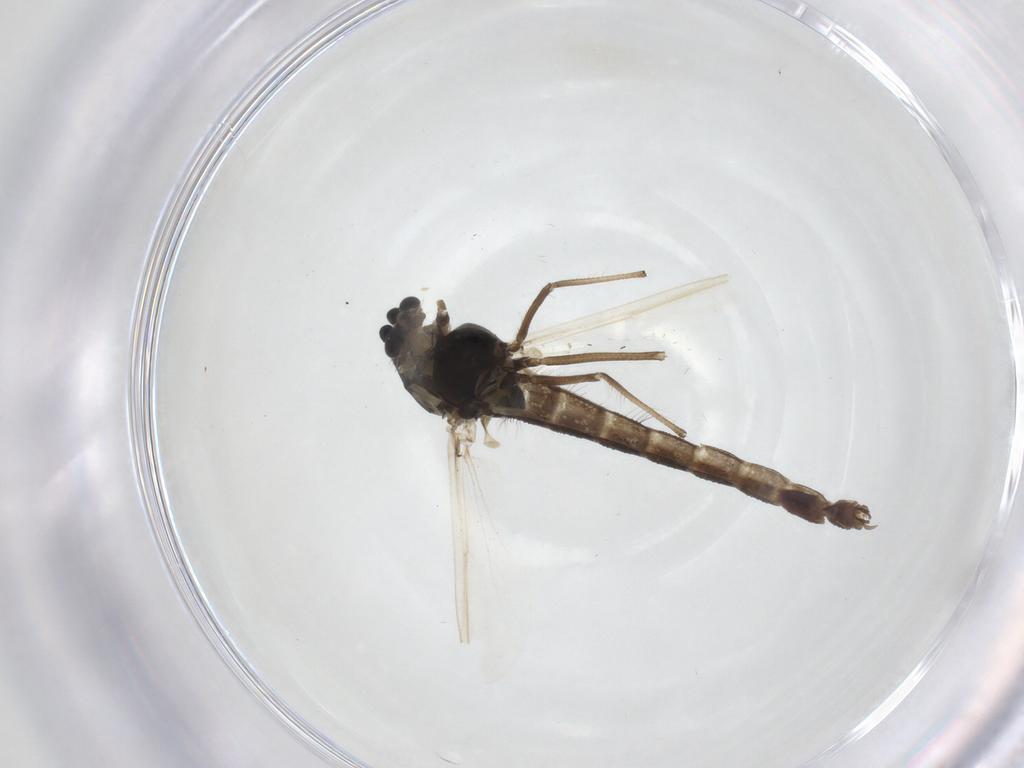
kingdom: Animalia
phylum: Arthropoda
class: Insecta
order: Diptera
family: Chironomidae
